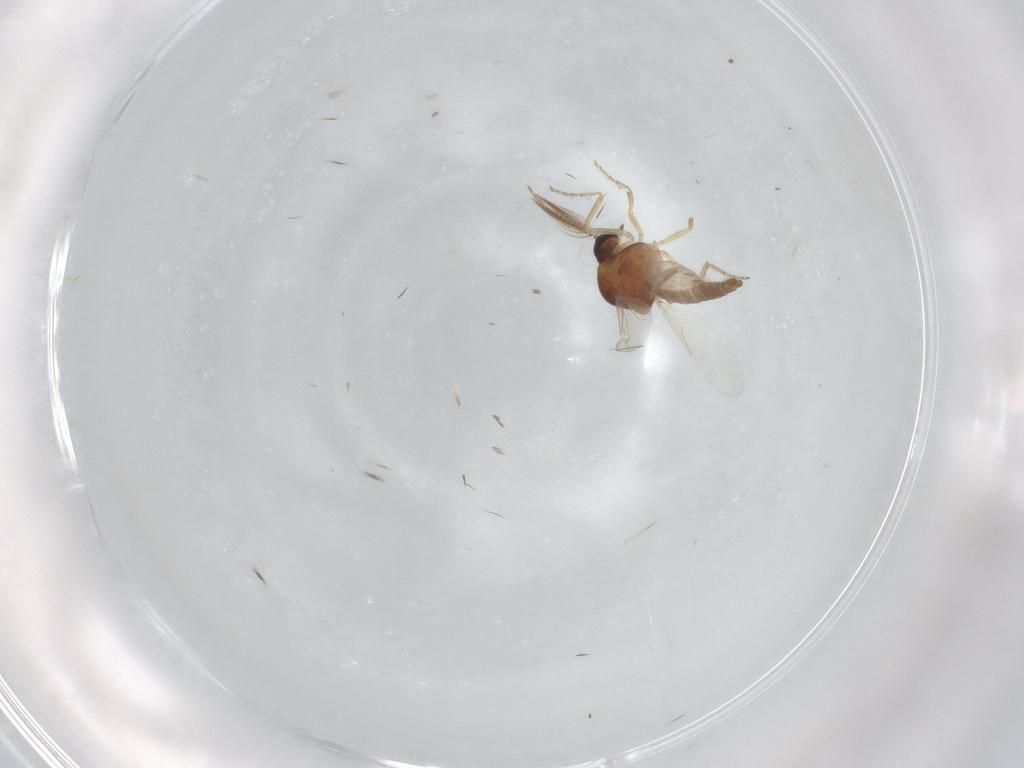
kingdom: Animalia
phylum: Arthropoda
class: Insecta
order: Diptera
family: Ceratopogonidae
